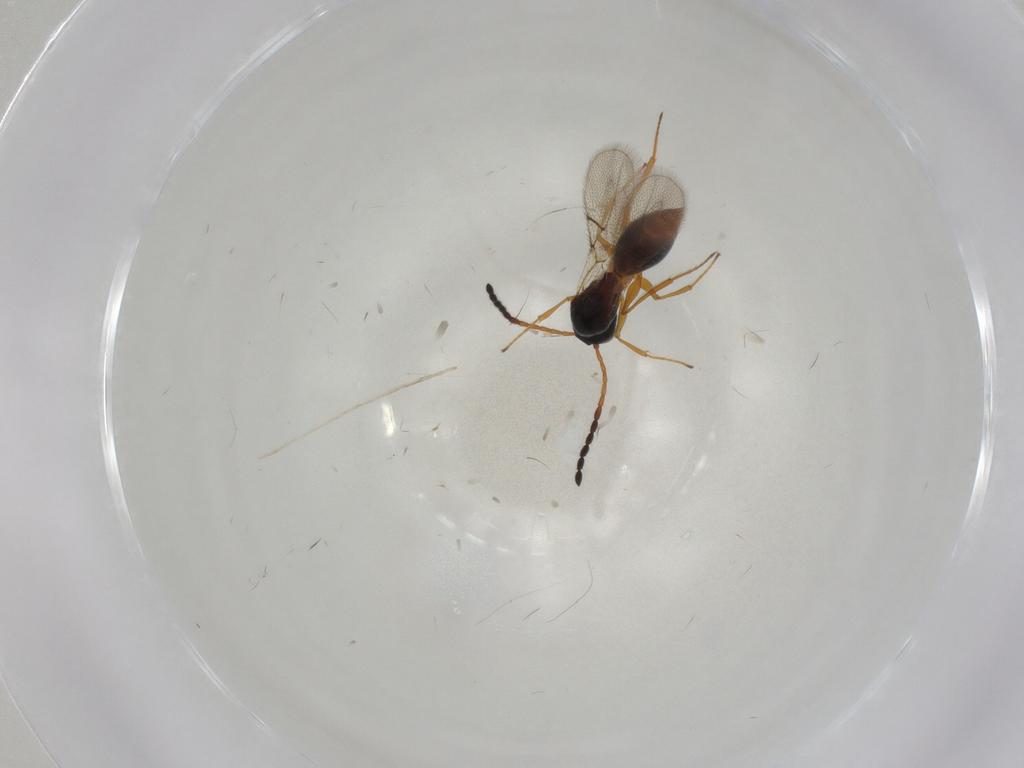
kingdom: Animalia
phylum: Arthropoda
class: Insecta
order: Hymenoptera
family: Figitidae
